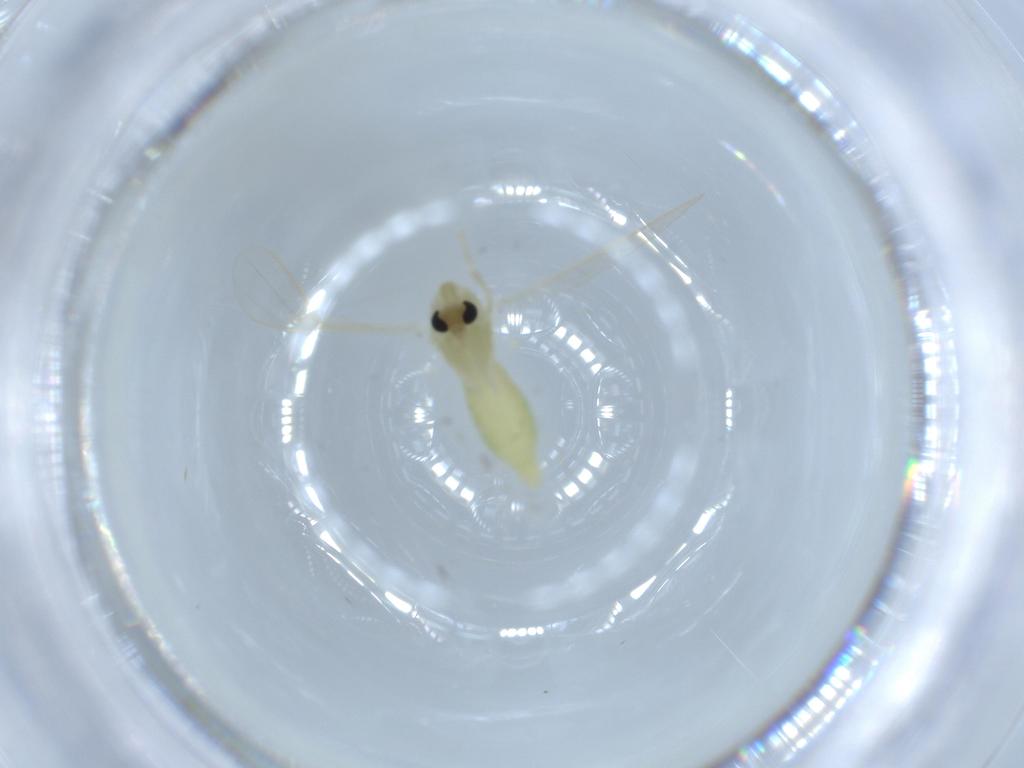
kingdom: Animalia
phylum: Arthropoda
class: Insecta
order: Diptera
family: Chironomidae
